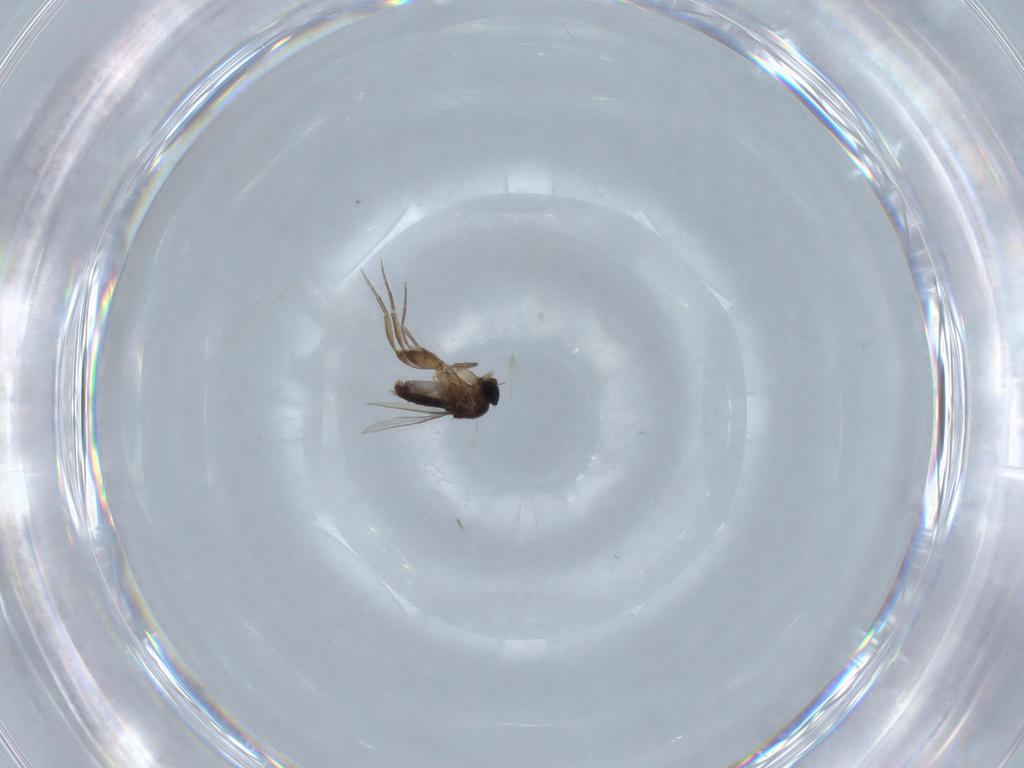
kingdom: Animalia
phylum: Arthropoda
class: Insecta
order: Diptera
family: Phoridae
